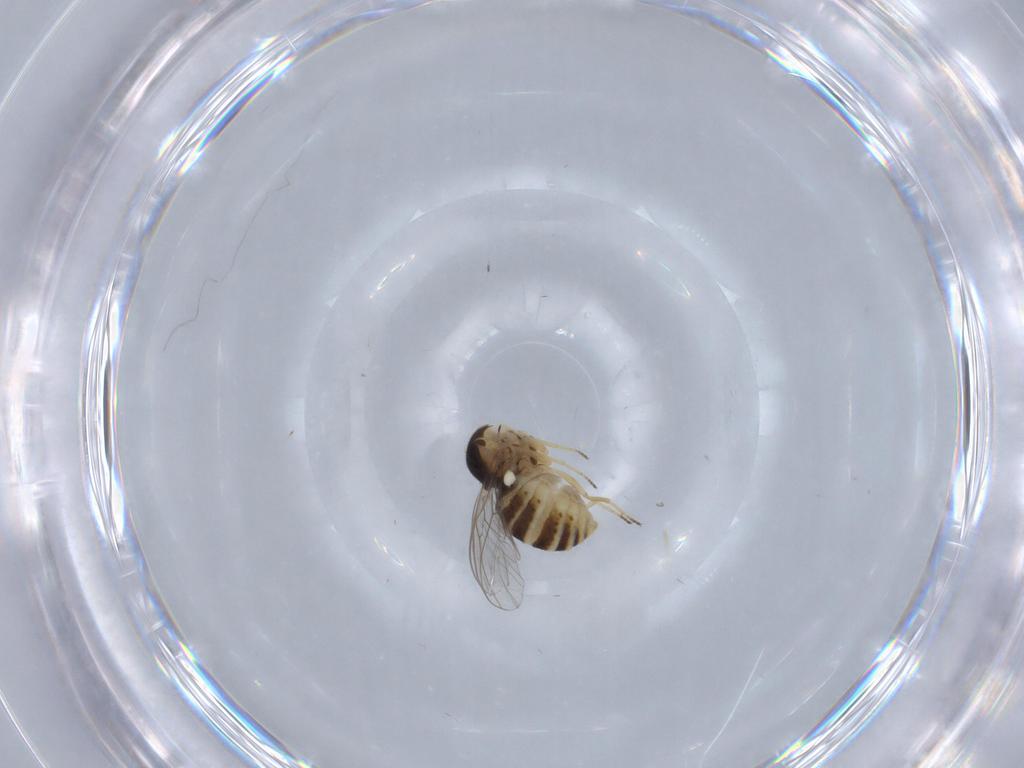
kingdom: Animalia
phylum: Arthropoda
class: Insecta
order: Diptera
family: Mythicomyiidae
